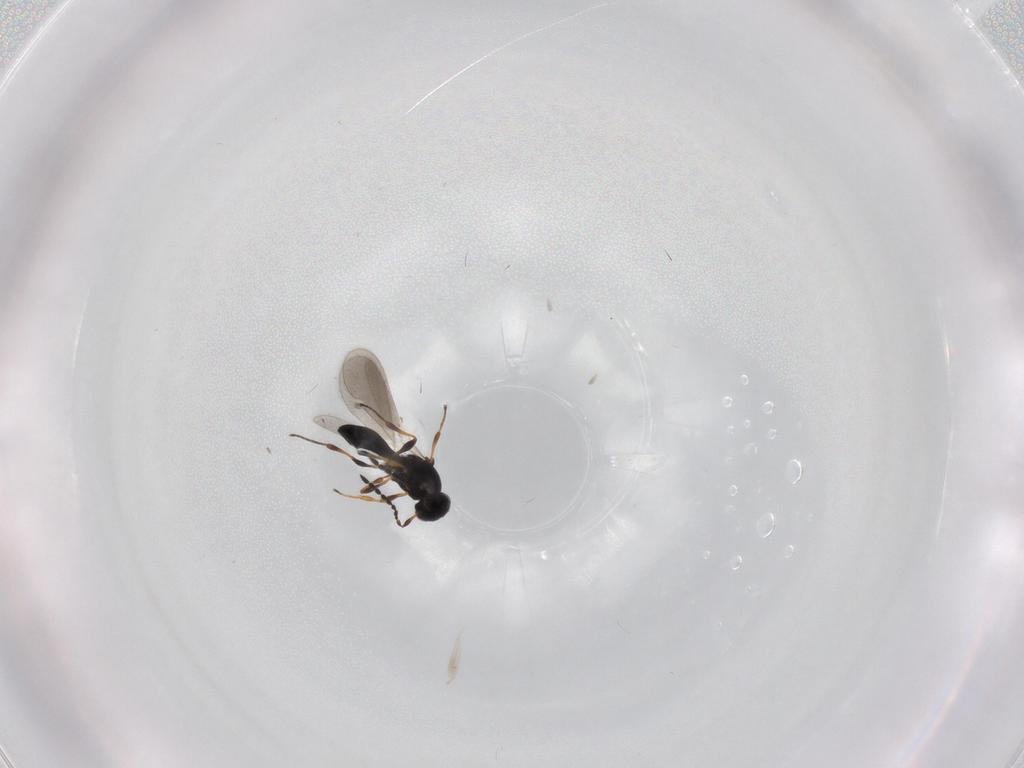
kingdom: Animalia
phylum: Arthropoda
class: Insecta
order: Hymenoptera
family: Platygastridae
